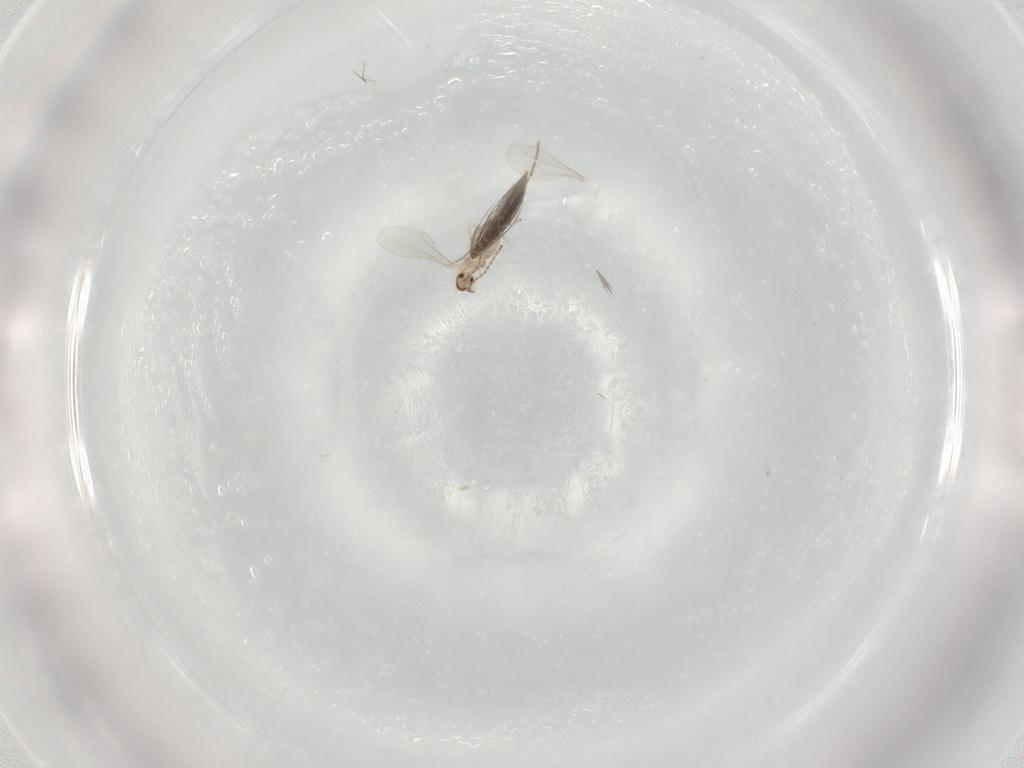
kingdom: Animalia
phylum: Arthropoda
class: Insecta
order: Diptera
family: Cecidomyiidae
